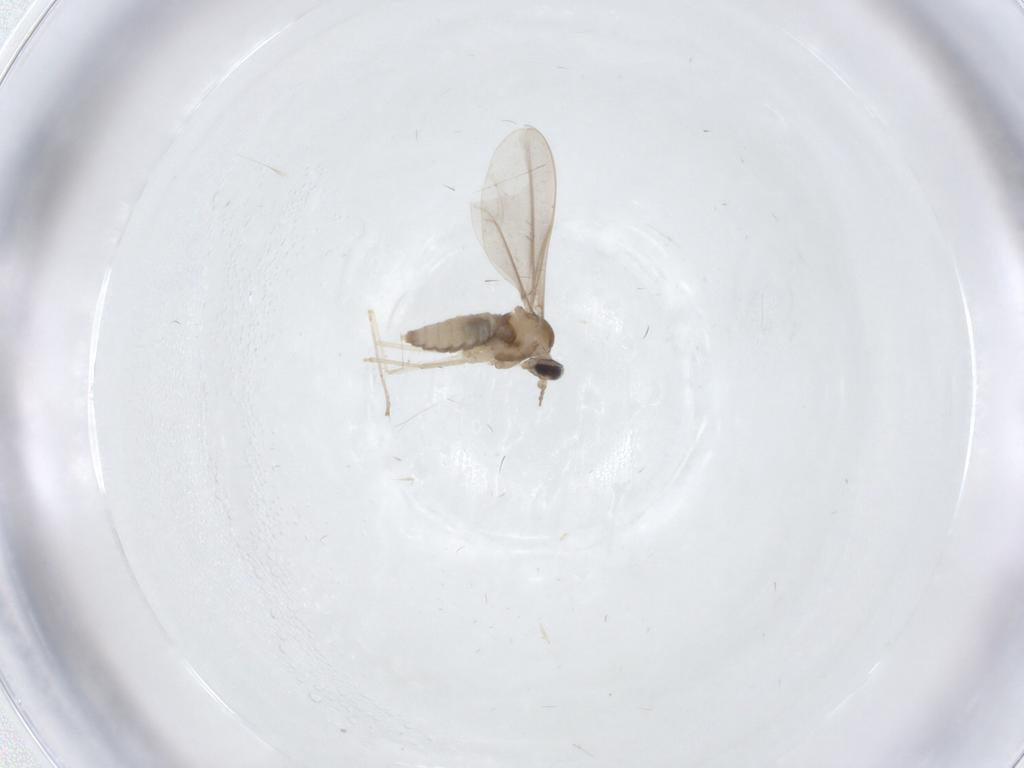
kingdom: Animalia
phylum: Arthropoda
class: Insecta
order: Diptera
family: Cecidomyiidae
